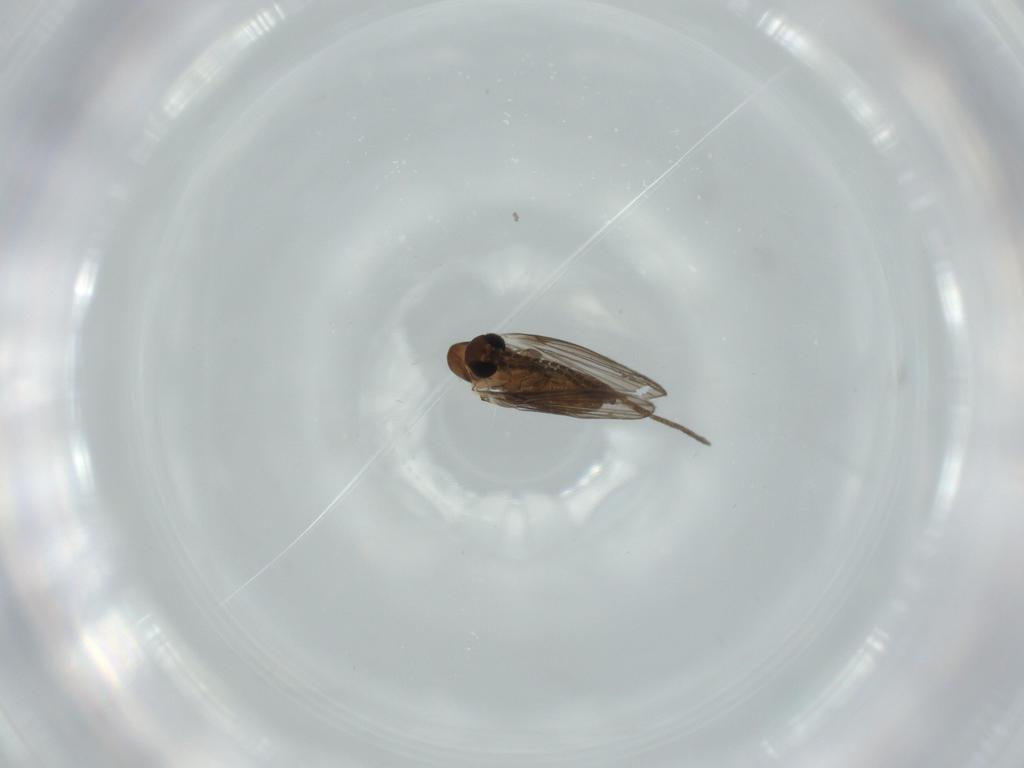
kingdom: Animalia
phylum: Arthropoda
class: Insecta
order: Diptera
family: Psychodidae
